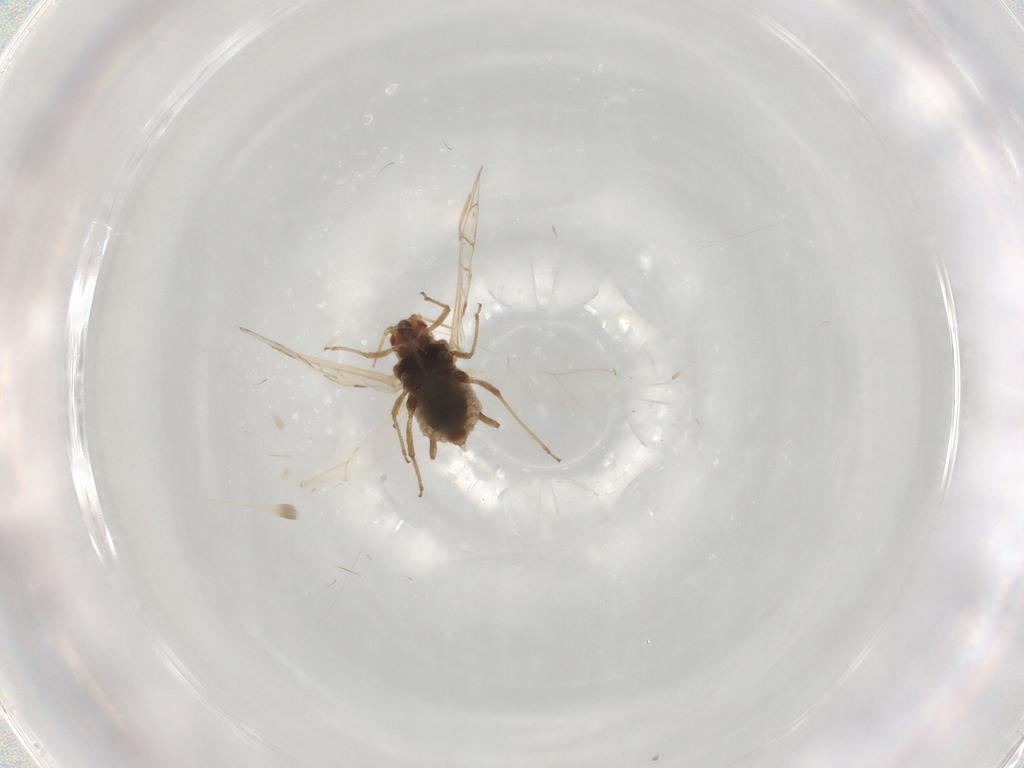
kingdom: Animalia
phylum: Arthropoda
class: Insecta
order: Hemiptera
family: Aphididae
